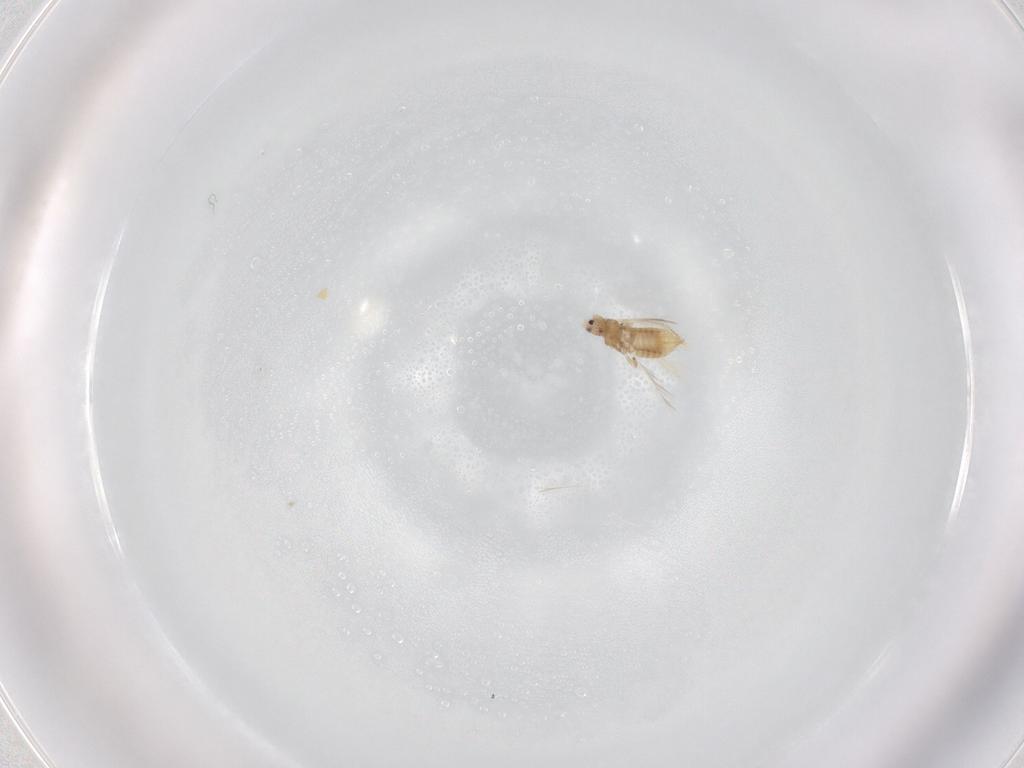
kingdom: Animalia
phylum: Arthropoda
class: Insecta
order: Thysanoptera
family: Thripidae
